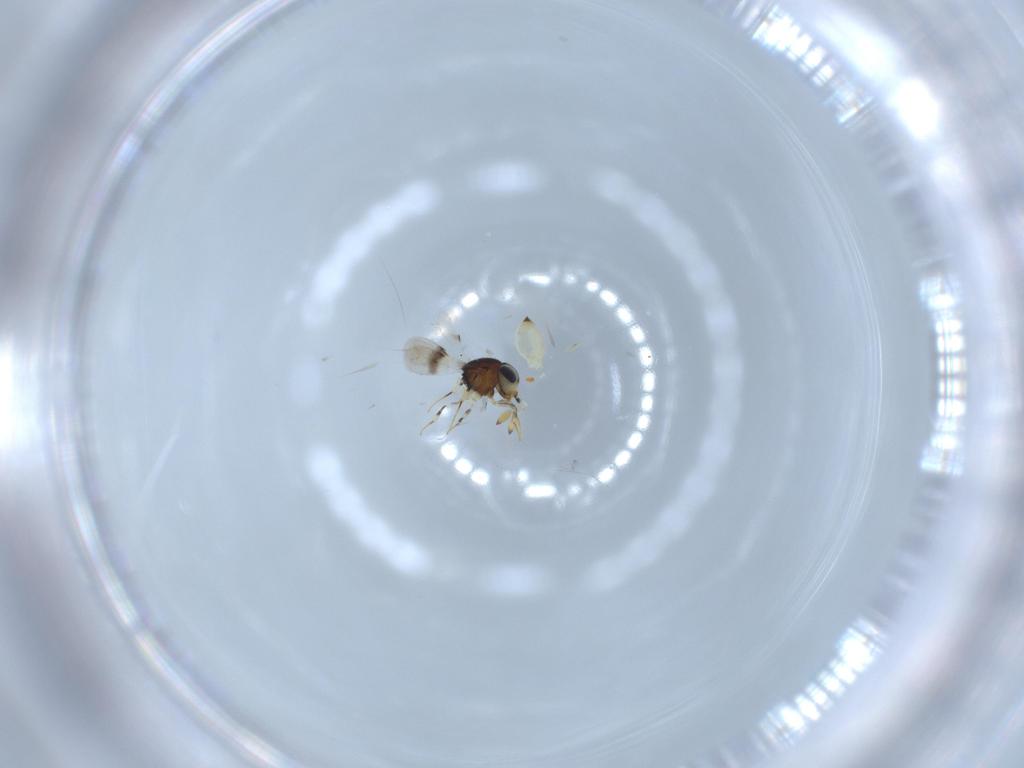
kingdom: Animalia
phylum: Arthropoda
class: Insecta
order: Hymenoptera
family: Scelionidae
